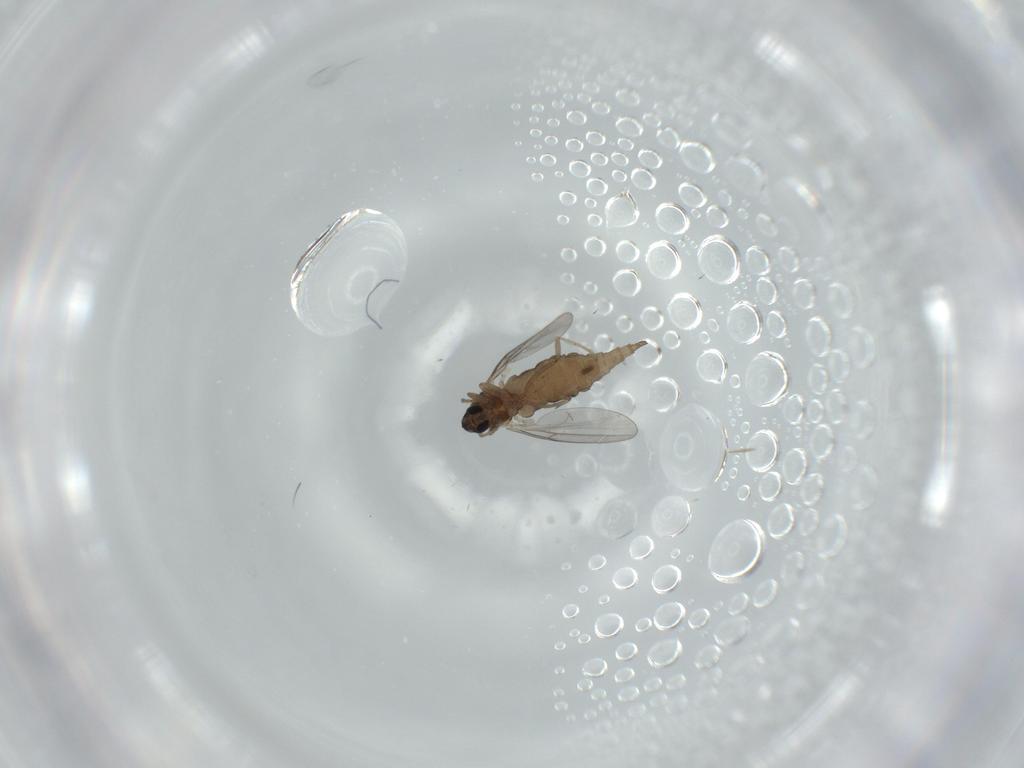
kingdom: Animalia
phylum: Arthropoda
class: Insecta
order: Diptera
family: Cecidomyiidae
